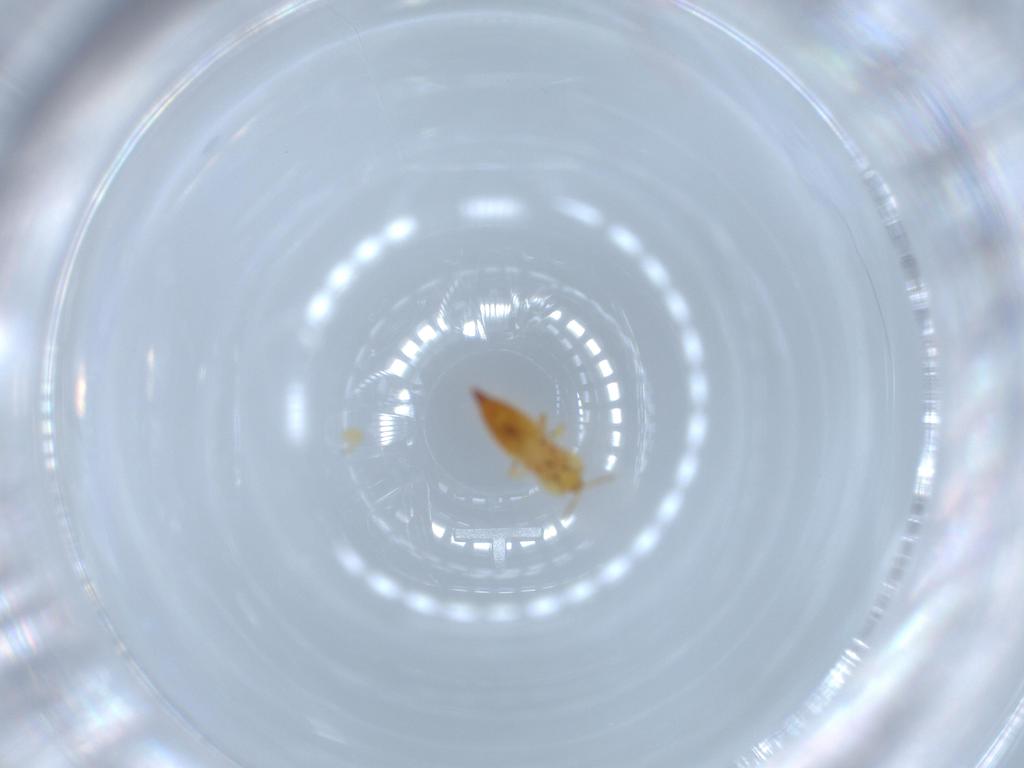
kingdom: Animalia
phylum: Arthropoda
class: Insecta
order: Thysanoptera
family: Phlaeothripidae
